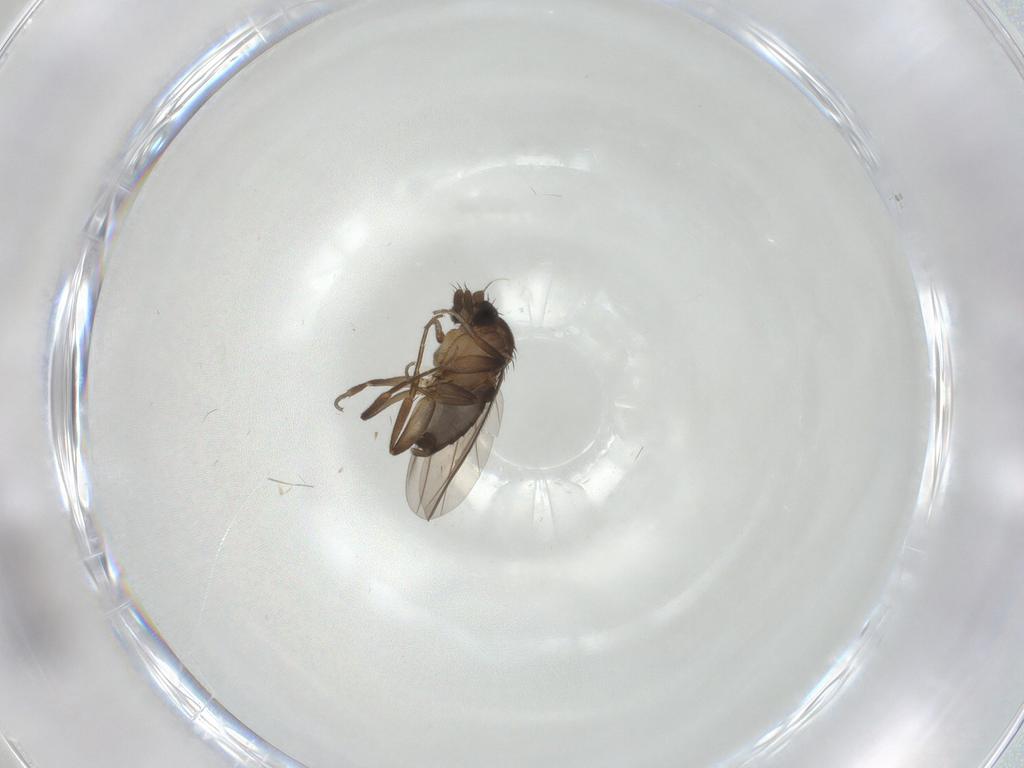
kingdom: Animalia
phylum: Arthropoda
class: Insecta
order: Diptera
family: Phoridae
